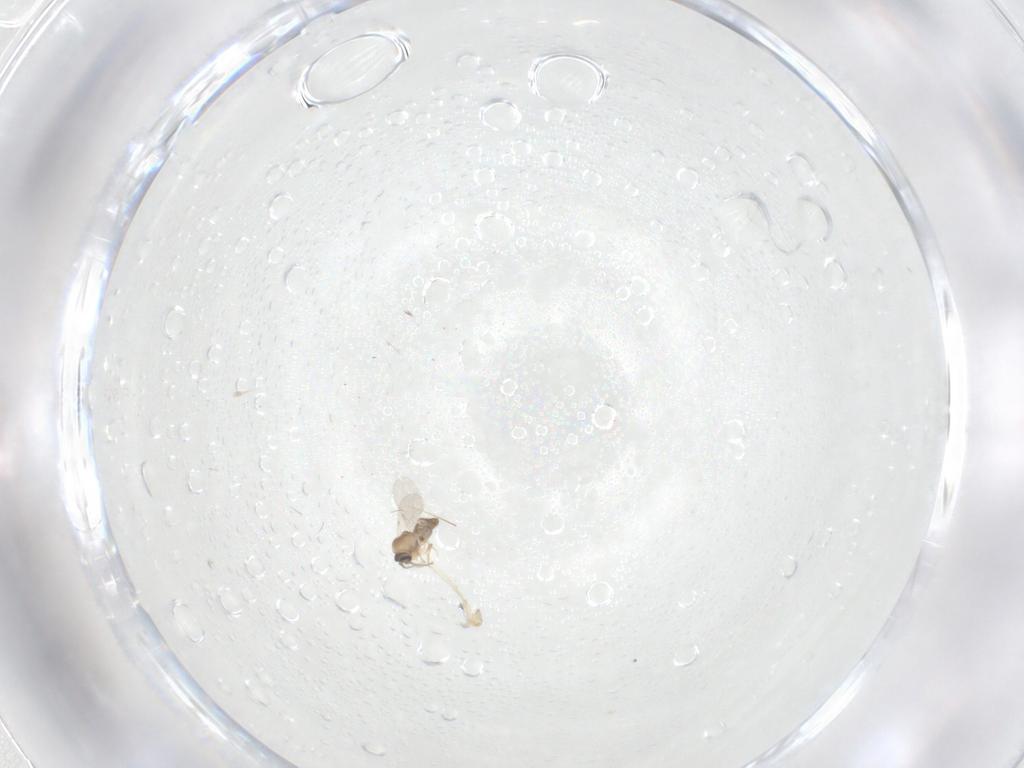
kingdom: Animalia
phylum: Arthropoda
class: Insecta
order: Diptera
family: Ceratopogonidae
